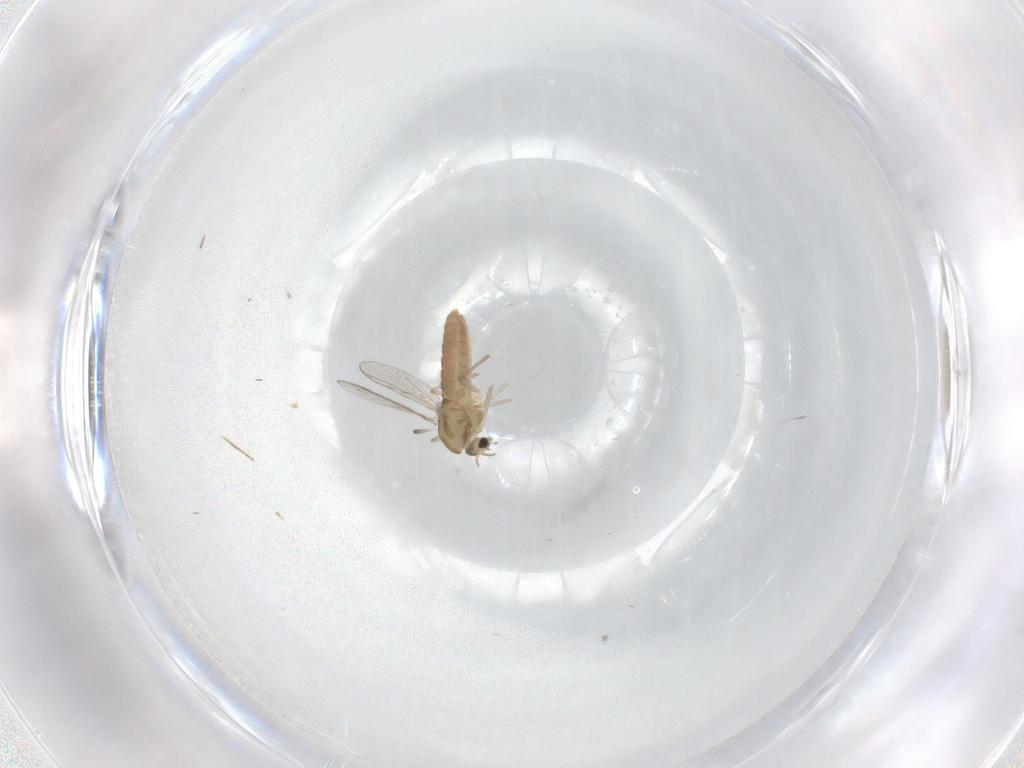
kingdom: Animalia
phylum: Arthropoda
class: Insecta
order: Diptera
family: Chironomidae
